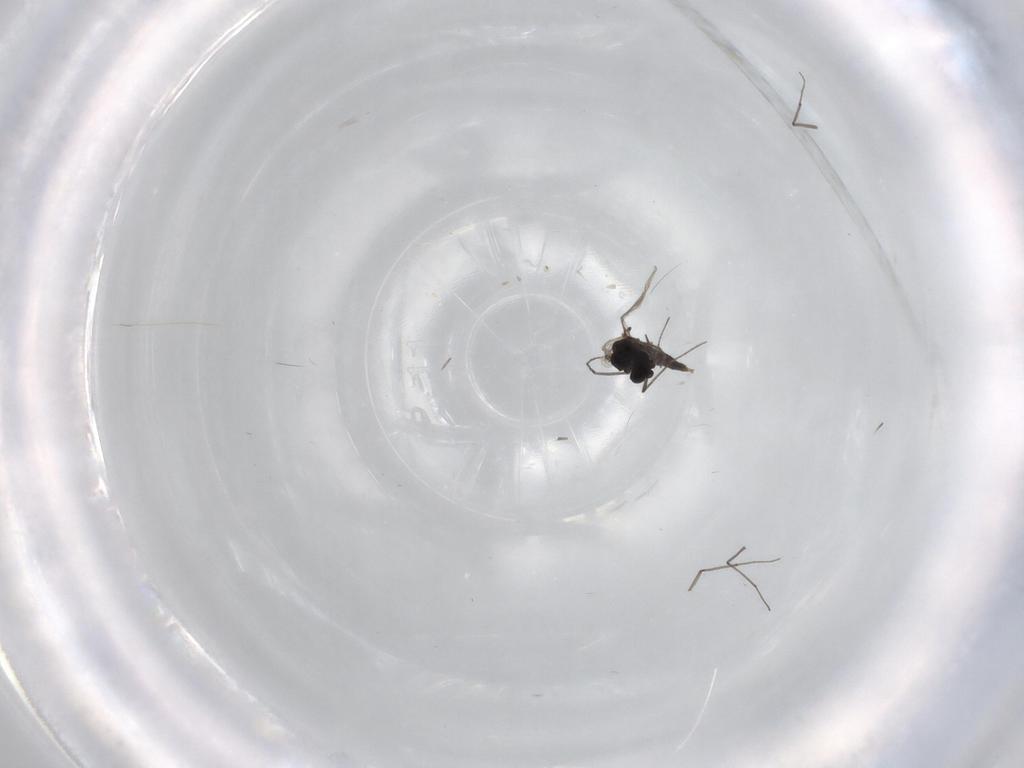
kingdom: Animalia
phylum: Arthropoda
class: Insecta
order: Diptera
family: Chironomidae
